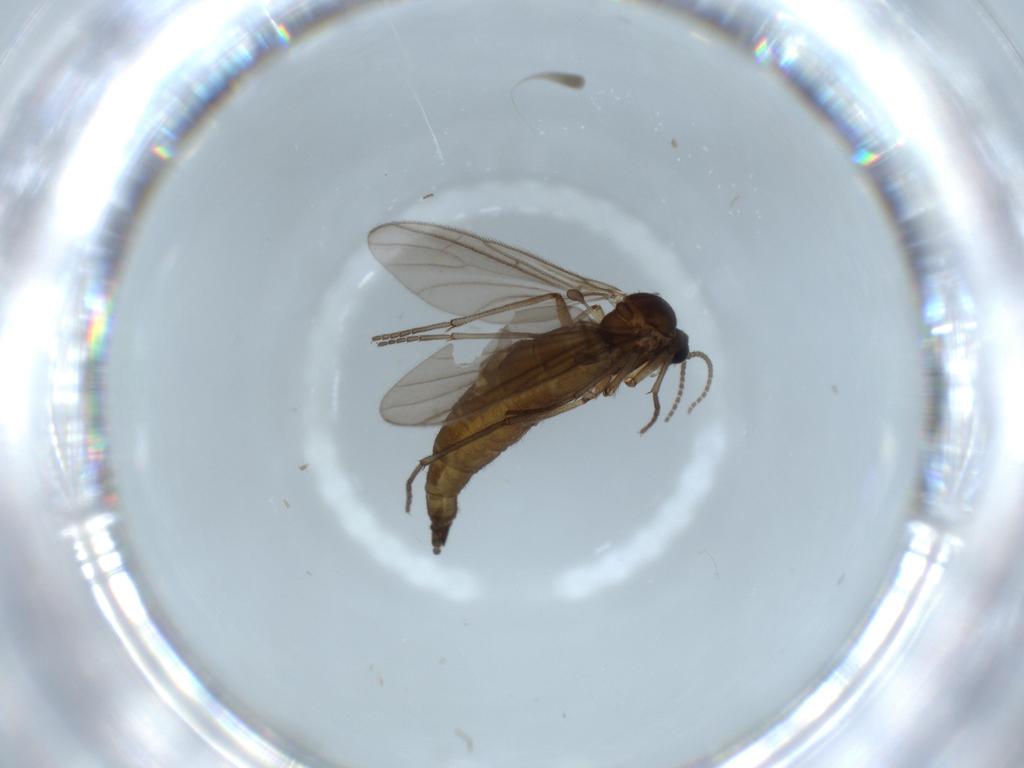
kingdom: Animalia
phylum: Arthropoda
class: Insecta
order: Diptera
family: Sciaridae
